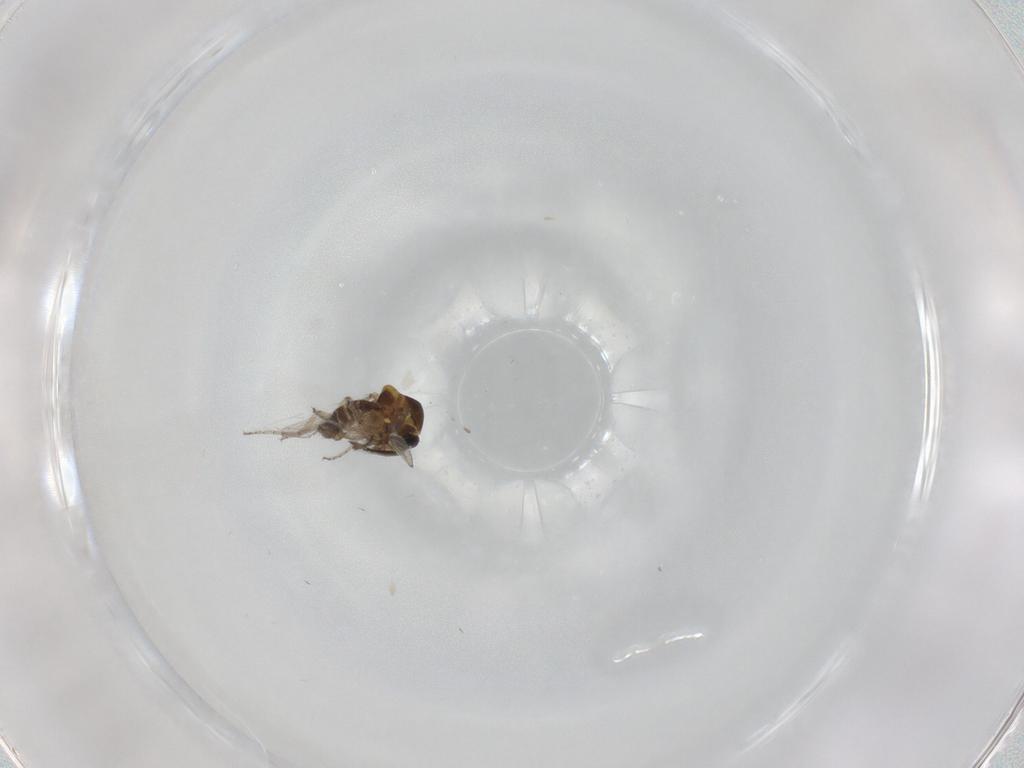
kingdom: Animalia
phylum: Arthropoda
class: Insecta
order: Diptera
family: Ceratopogonidae
